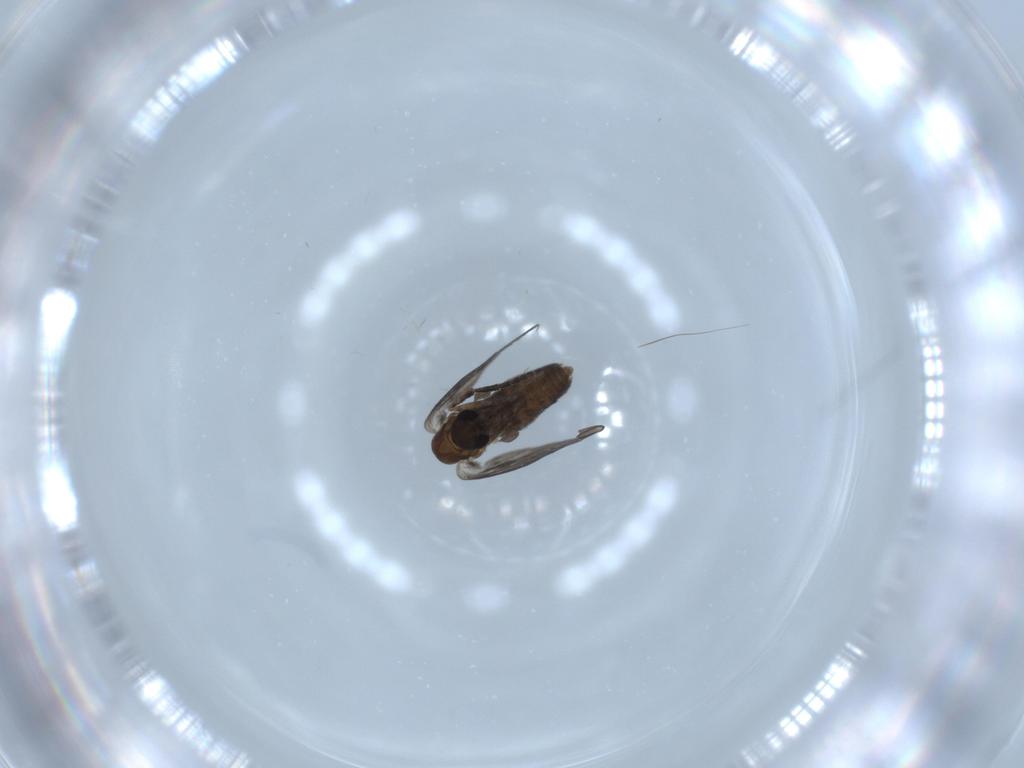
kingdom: Animalia
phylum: Arthropoda
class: Insecta
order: Diptera
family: Psychodidae
